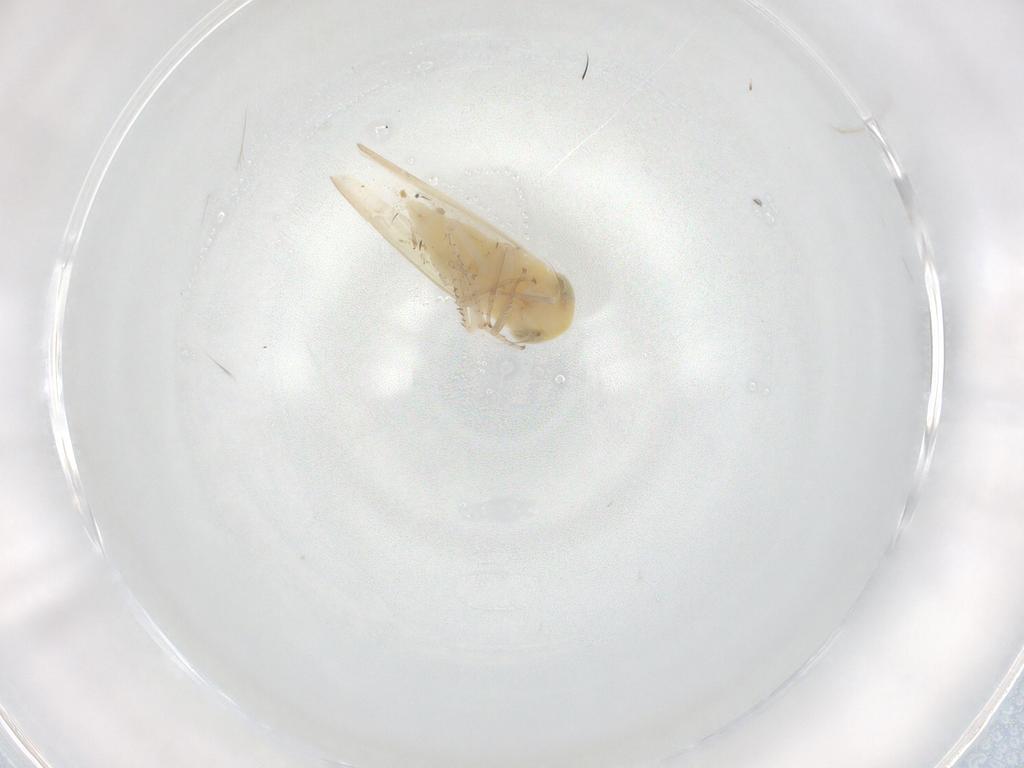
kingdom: Animalia
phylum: Arthropoda
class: Insecta
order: Hemiptera
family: Cicadellidae
